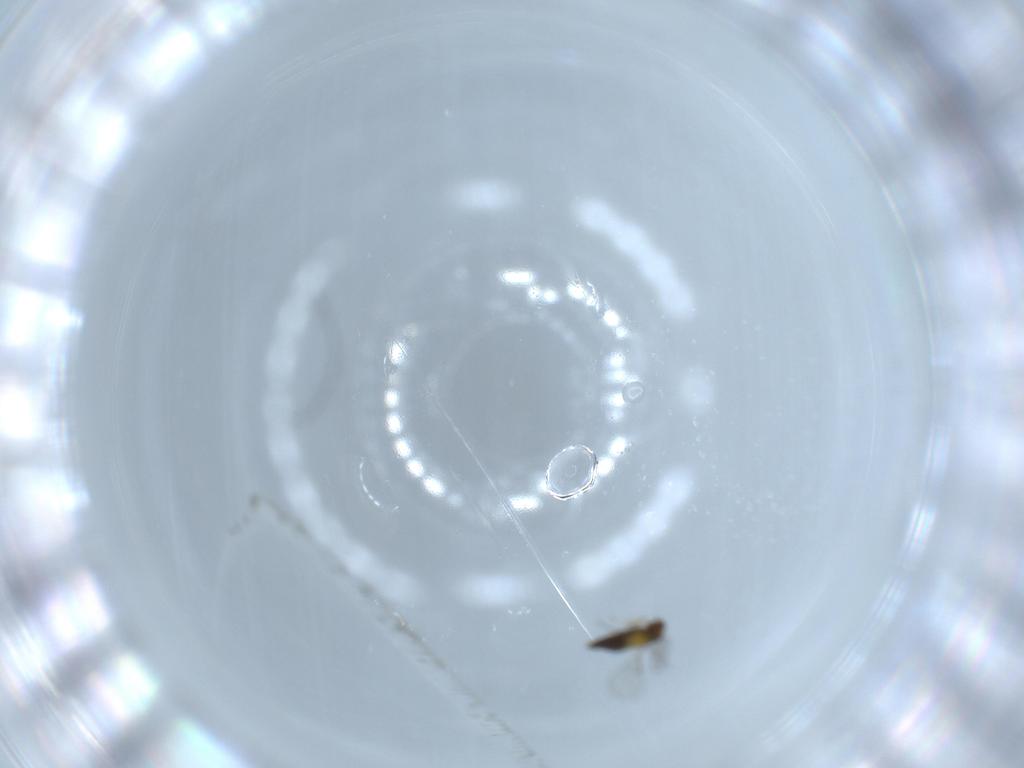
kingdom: Animalia
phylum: Arthropoda
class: Insecta
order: Hymenoptera
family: Trichogrammatidae
